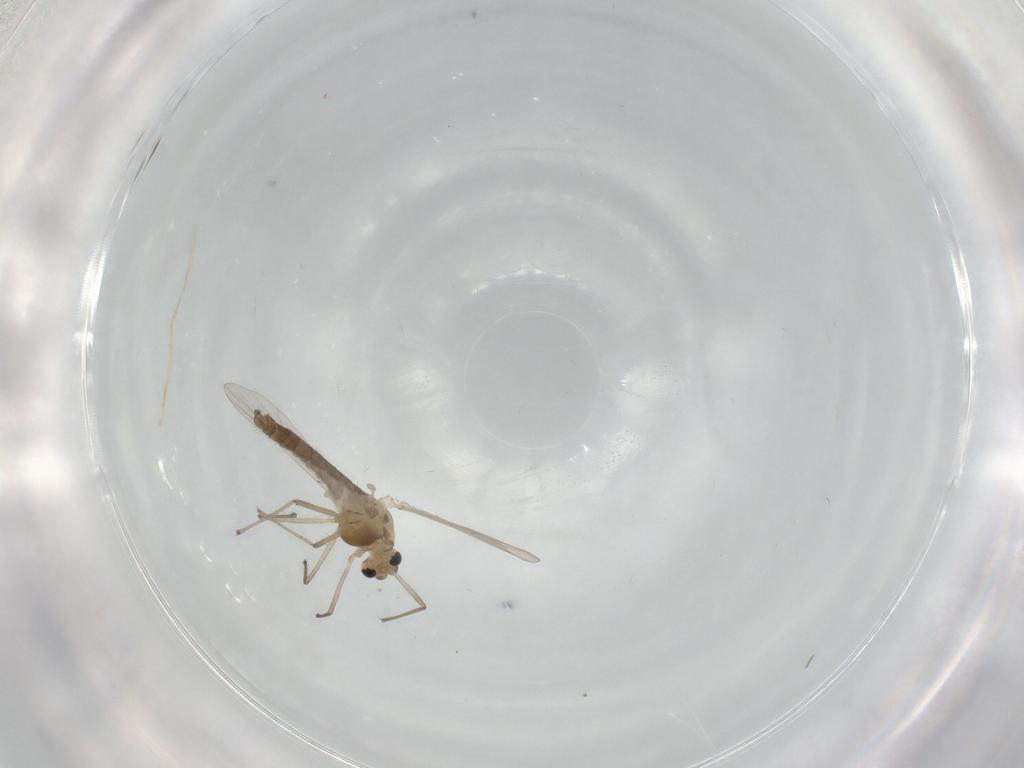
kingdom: Animalia
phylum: Arthropoda
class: Insecta
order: Diptera
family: Chironomidae
